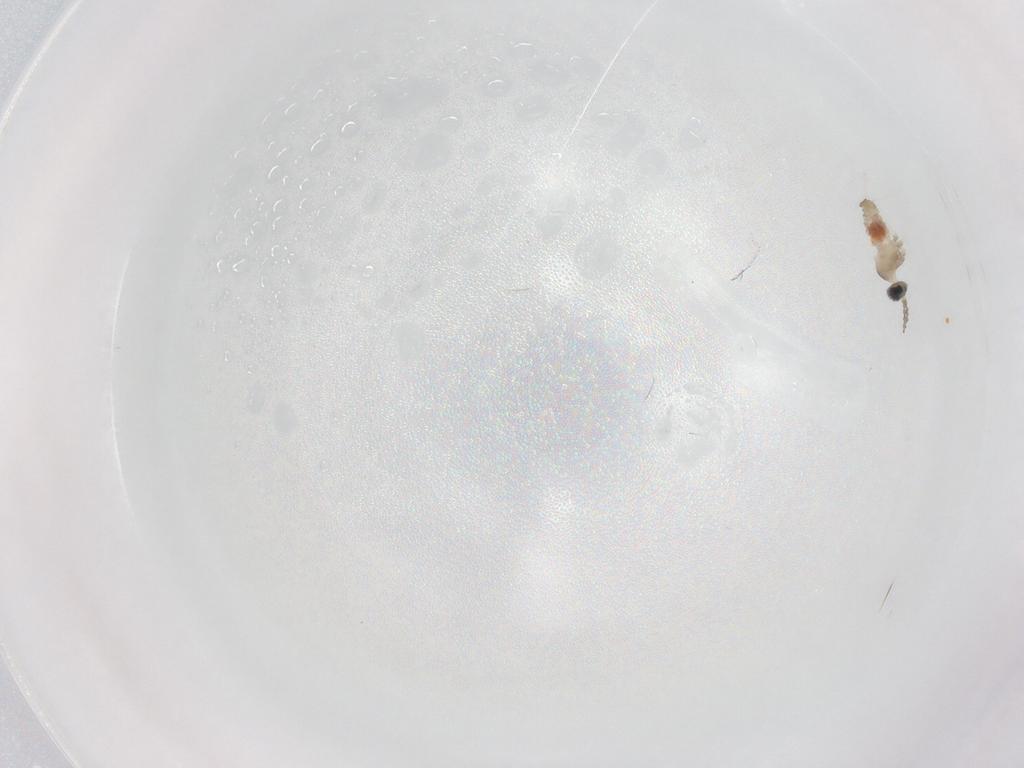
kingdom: Animalia
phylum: Arthropoda
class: Insecta
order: Diptera
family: Cecidomyiidae
